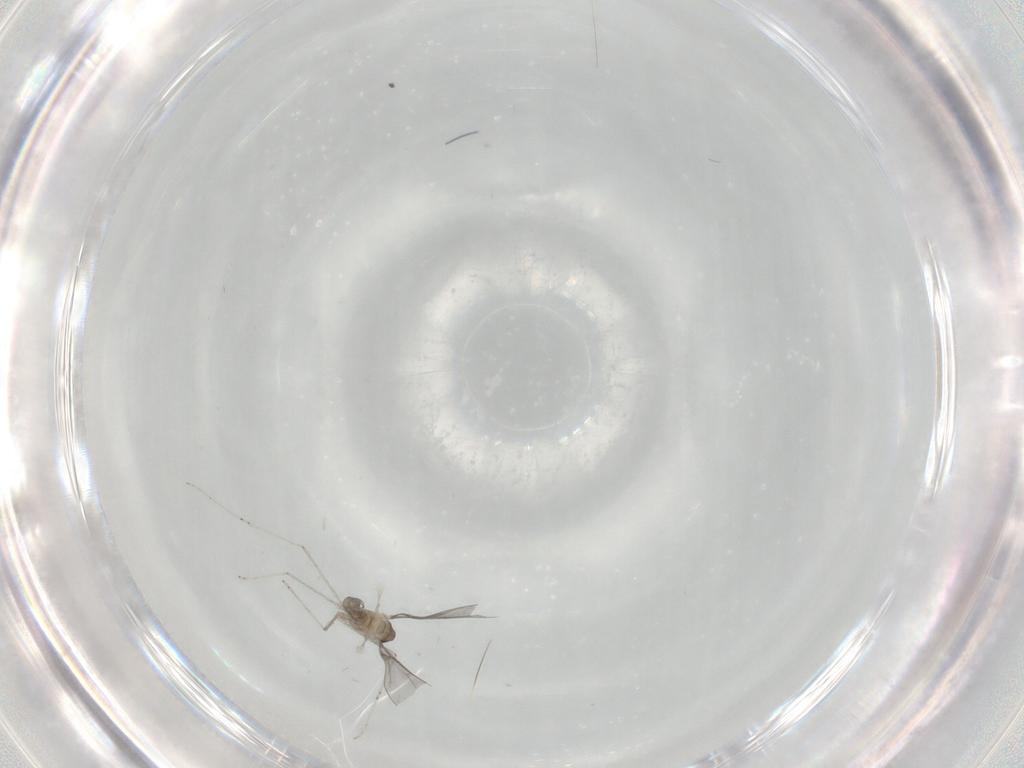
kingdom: Animalia
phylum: Arthropoda
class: Insecta
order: Diptera
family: Cecidomyiidae
